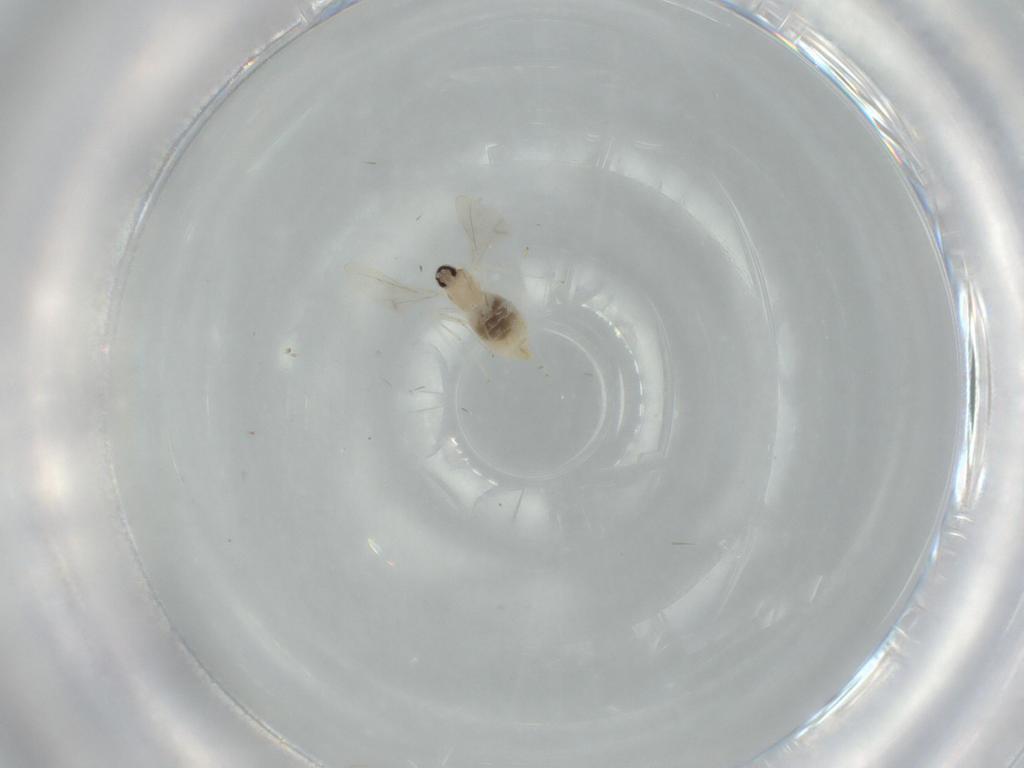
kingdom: Animalia
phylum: Arthropoda
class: Insecta
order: Diptera
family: Cecidomyiidae
